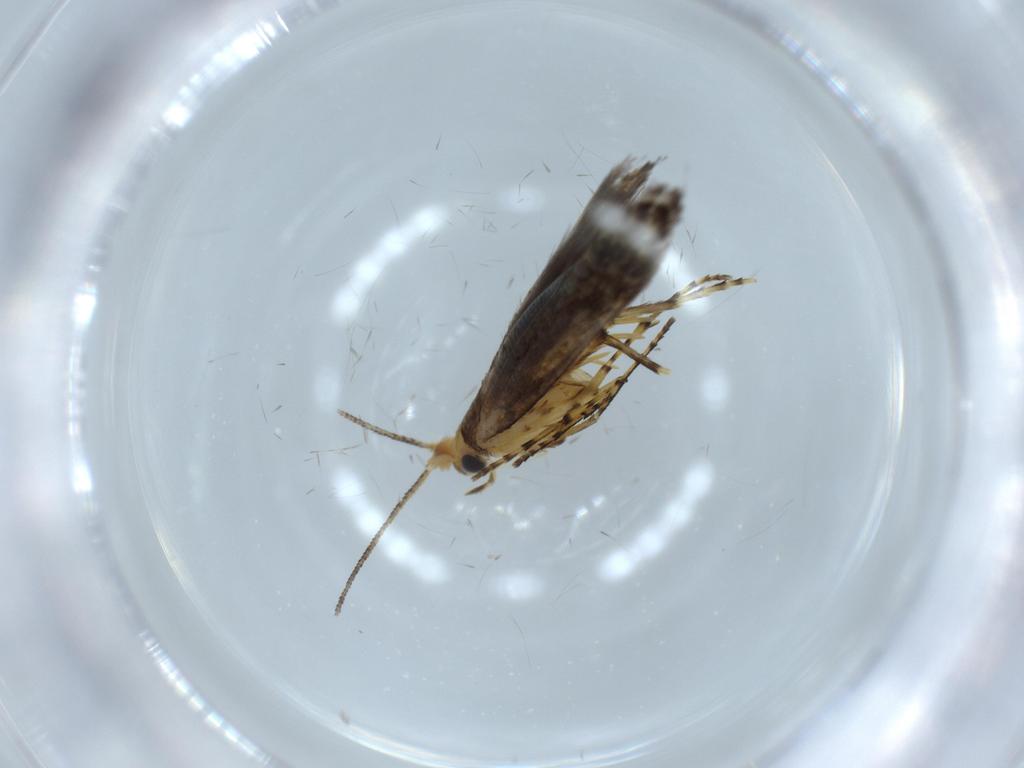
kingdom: Animalia
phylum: Arthropoda
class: Insecta
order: Lepidoptera
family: Argyresthiidae
